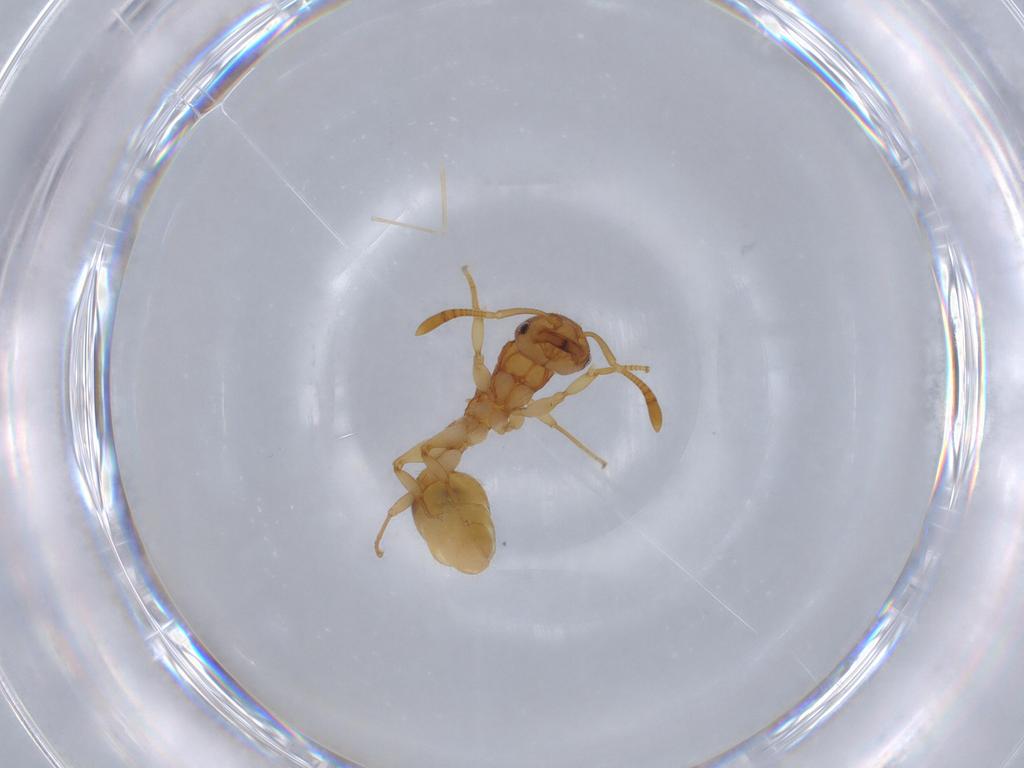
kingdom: Animalia
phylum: Arthropoda
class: Insecta
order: Hymenoptera
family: Formicidae
